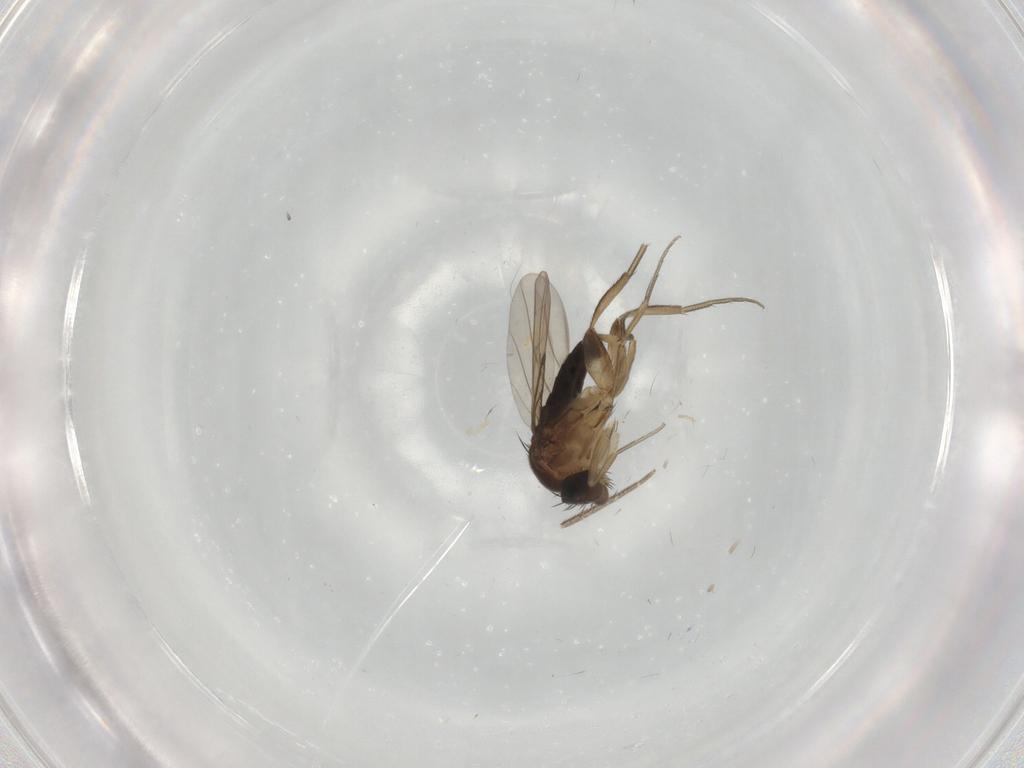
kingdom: Animalia
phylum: Arthropoda
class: Insecta
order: Diptera
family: Phoridae
